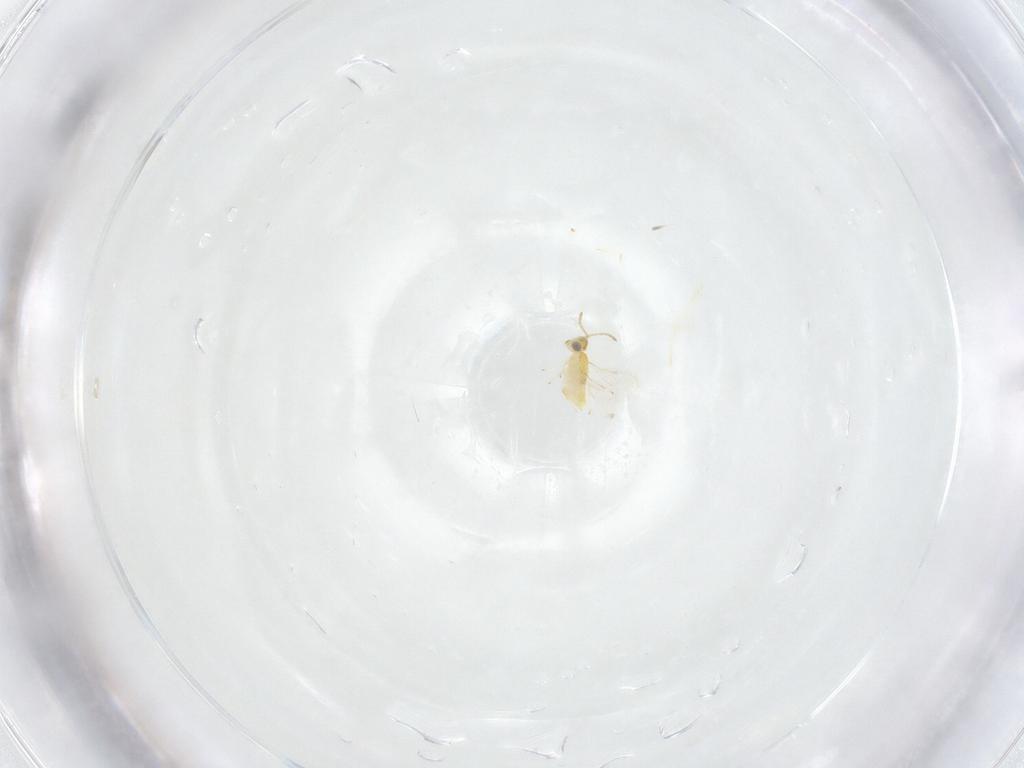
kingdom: Animalia
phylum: Arthropoda
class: Insecta
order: Hymenoptera
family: Aphelinidae
